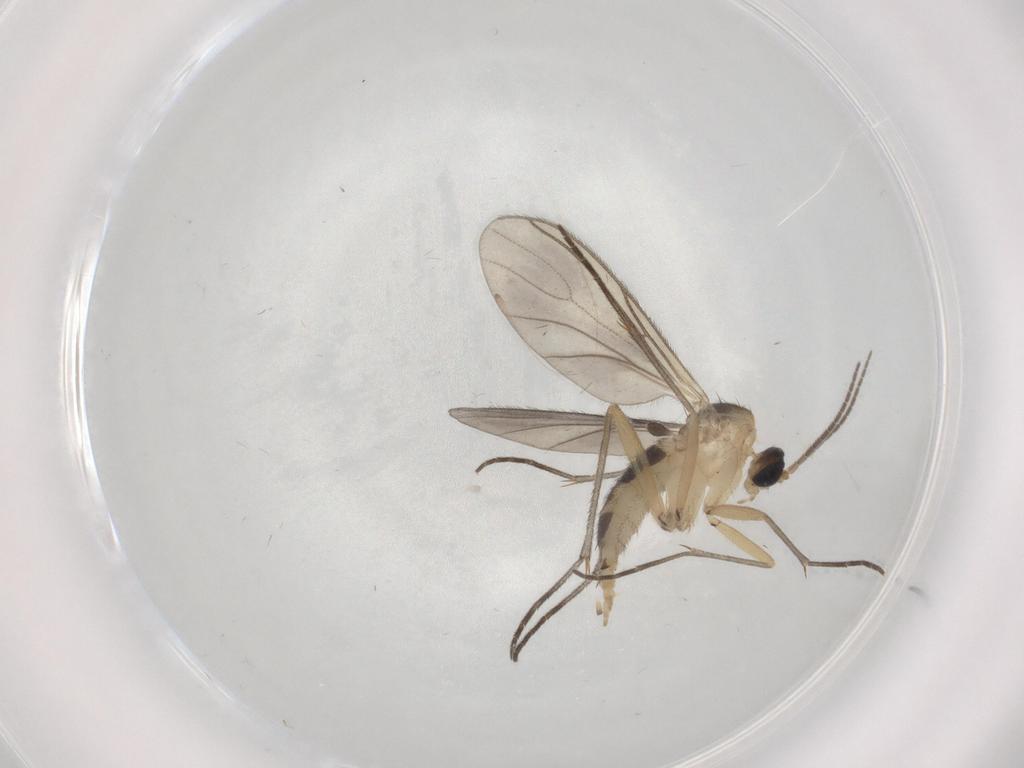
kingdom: Animalia
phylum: Arthropoda
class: Insecta
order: Diptera
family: Sciaridae
